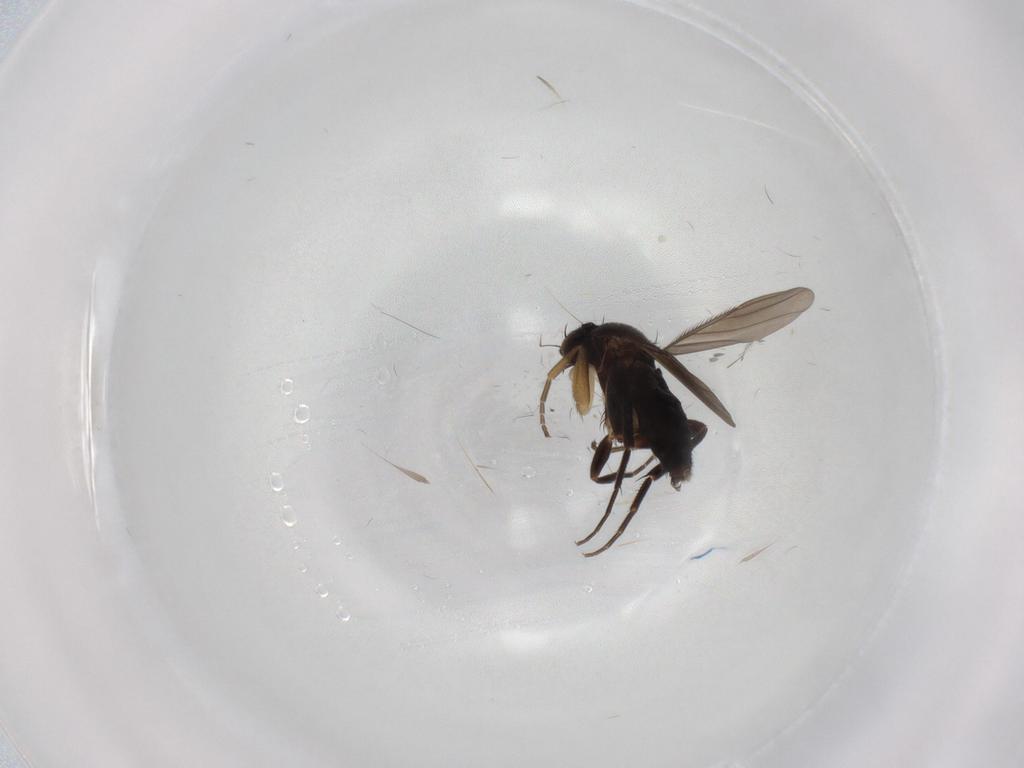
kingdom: Animalia
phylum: Arthropoda
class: Insecta
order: Diptera
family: Phoridae
